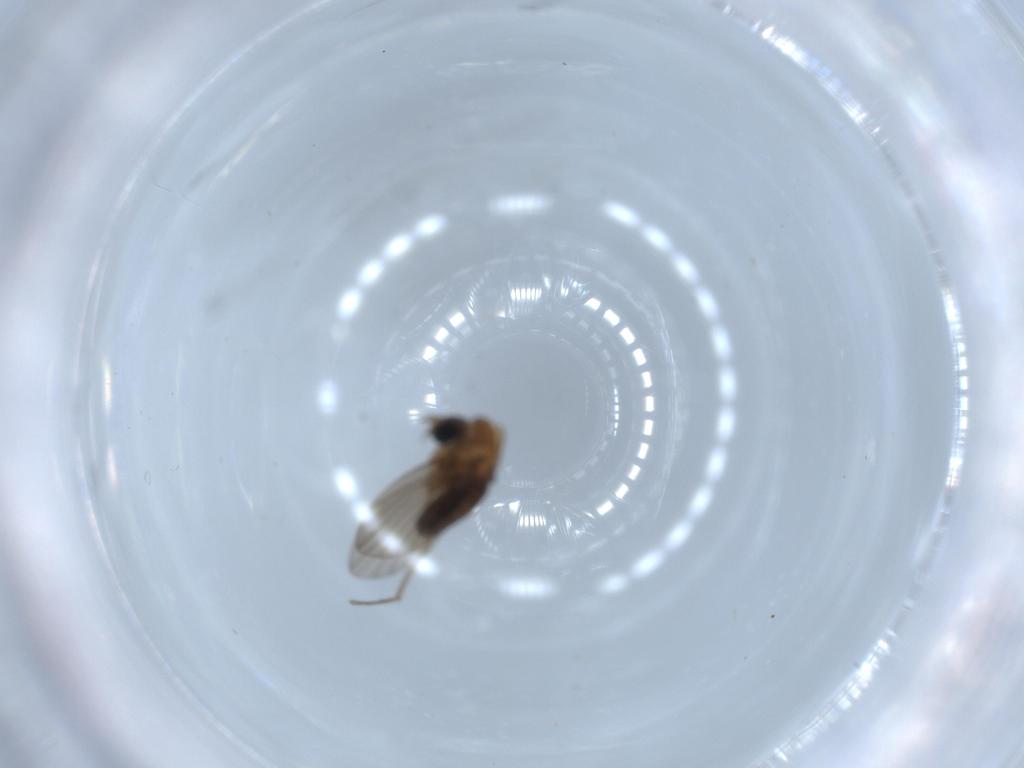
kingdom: Animalia
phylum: Arthropoda
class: Insecta
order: Diptera
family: Psychodidae
